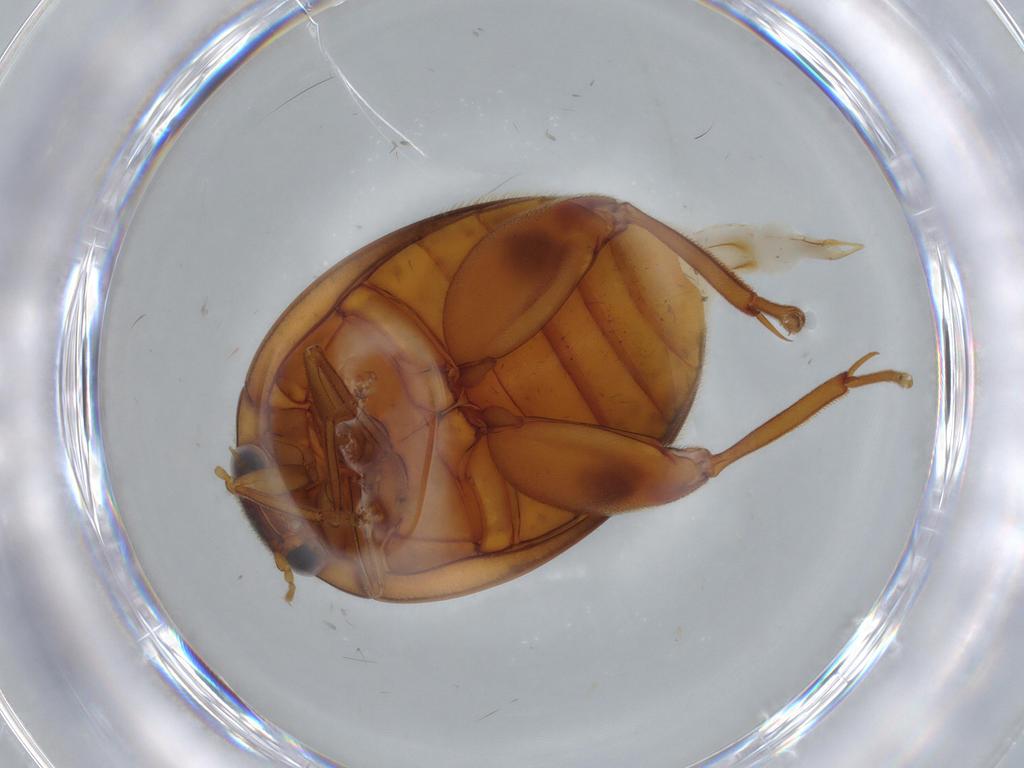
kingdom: Animalia
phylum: Arthropoda
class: Insecta
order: Coleoptera
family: Scirtidae
